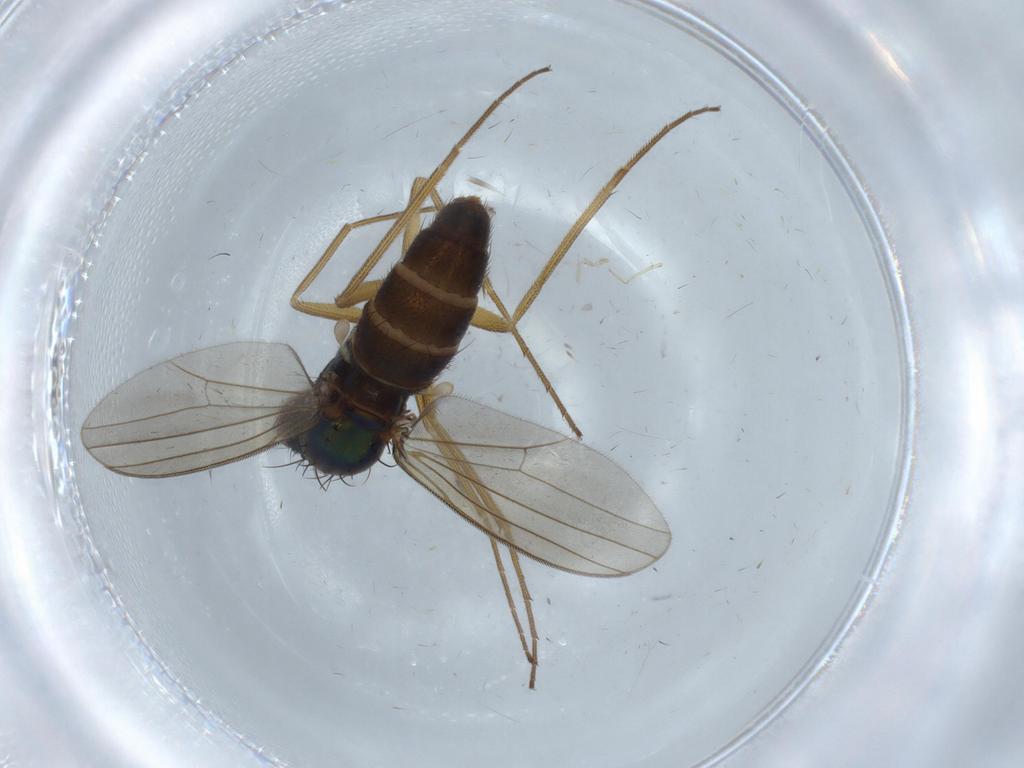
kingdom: Animalia
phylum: Arthropoda
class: Insecta
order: Diptera
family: Dolichopodidae
